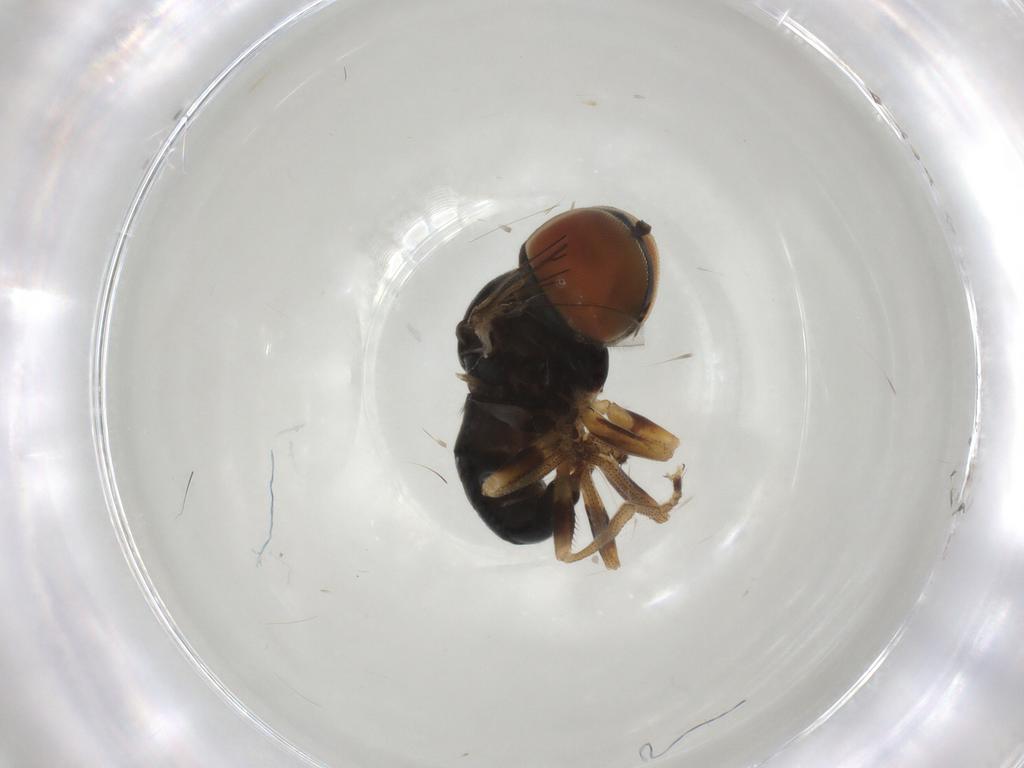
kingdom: Animalia
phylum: Arthropoda
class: Insecta
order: Diptera
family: Pipunculidae
